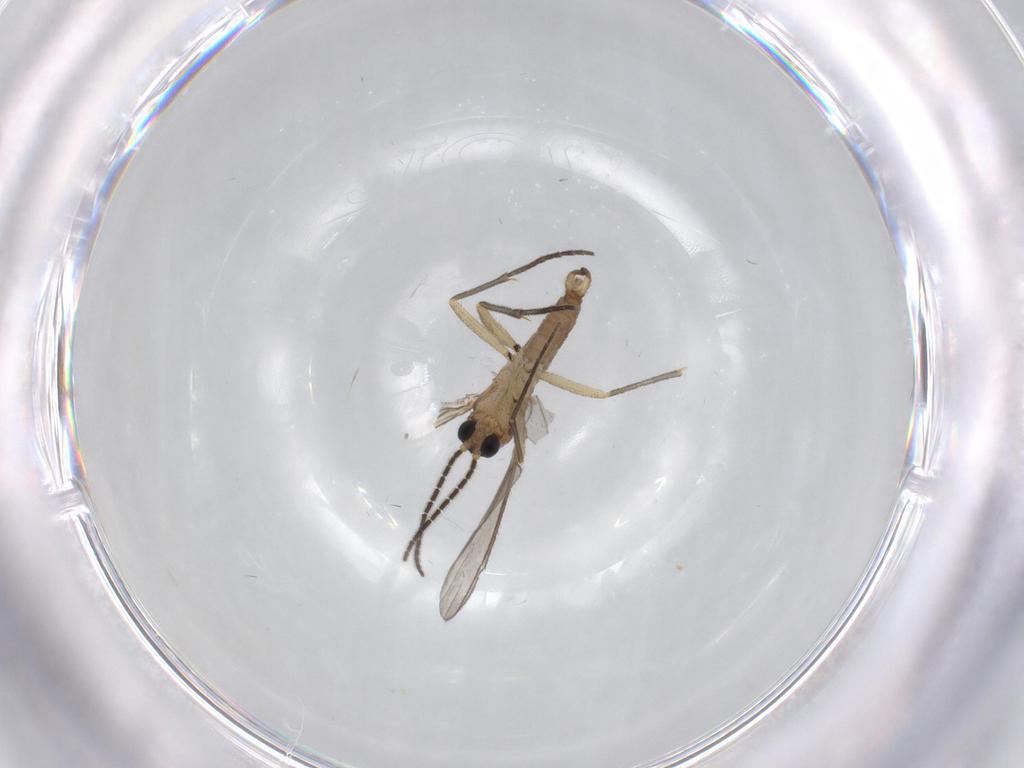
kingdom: Animalia
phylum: Arthropoda
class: Insecta
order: Diptera
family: Sciaridae
